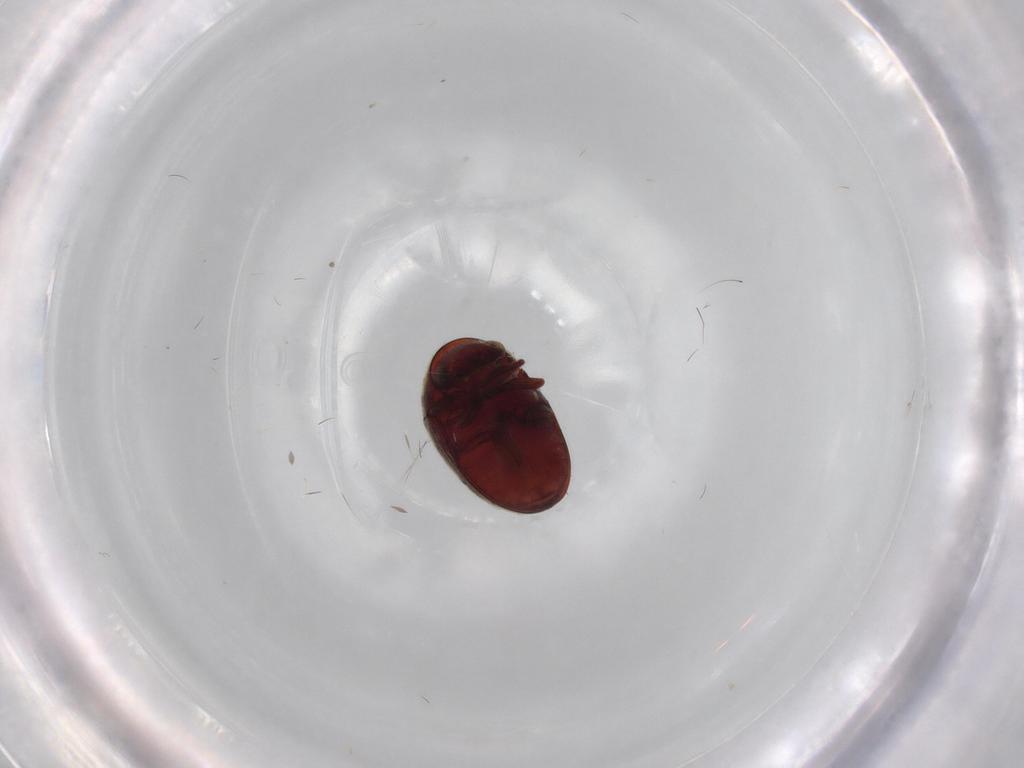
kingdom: Animalia
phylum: Arthropoda
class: Insecta
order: Coleoptera
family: Ptinidae
